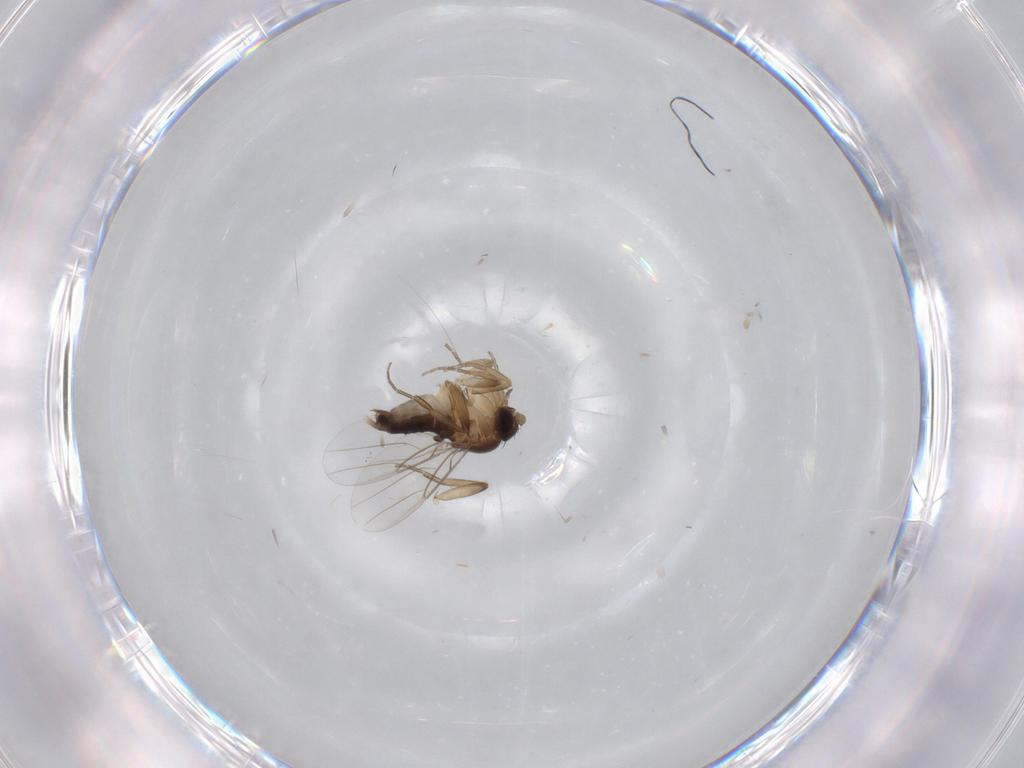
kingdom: Animalia
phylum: Arthropoda
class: Insecta
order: Diptera
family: Phoridae
